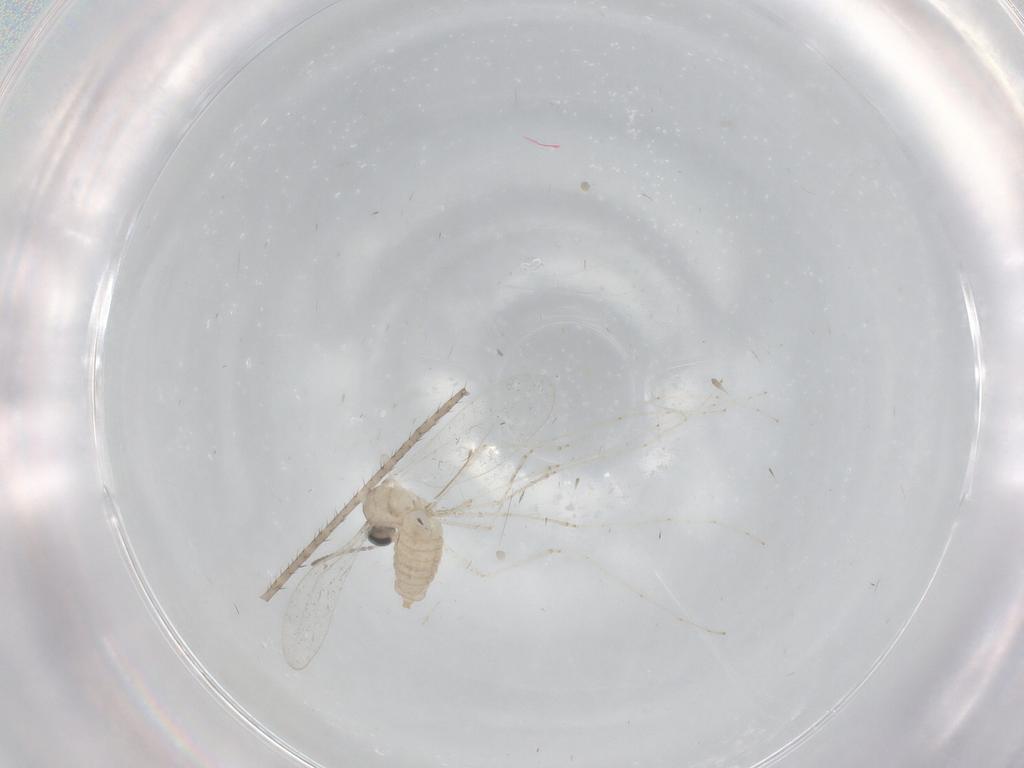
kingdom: Animalia
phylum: Arthropoda
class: Insecta
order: Diptera
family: Cecidomyiidae
